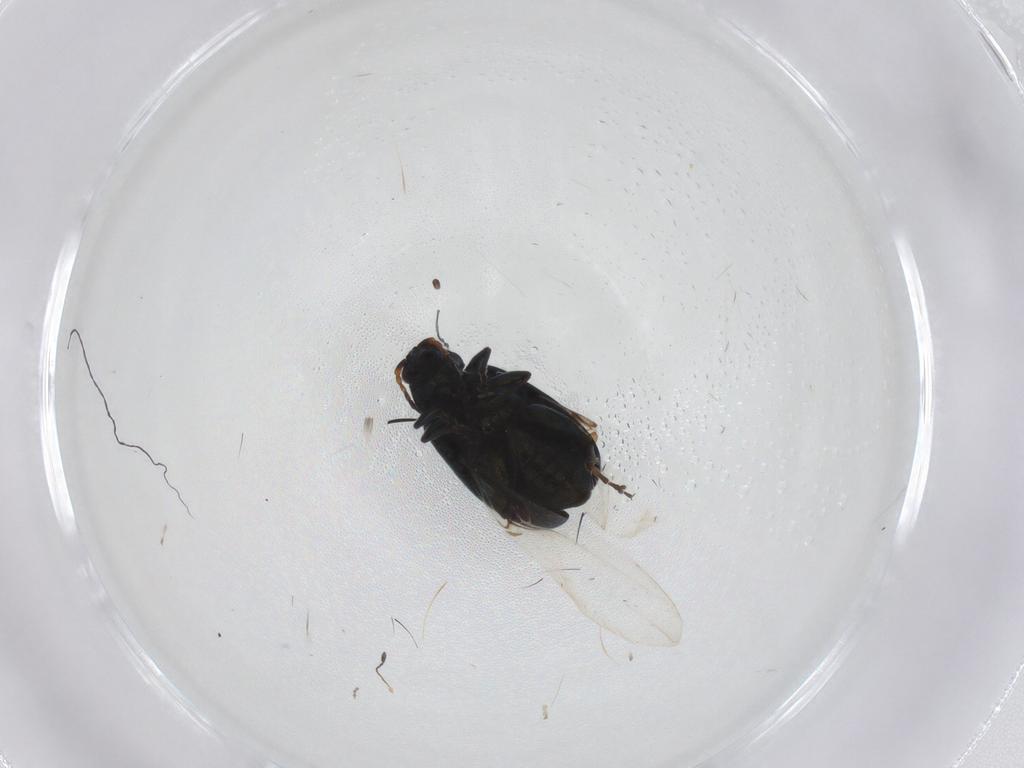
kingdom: Animalia
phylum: Arthropoda
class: Insecta
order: Coleoptera
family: Chrysomelidae
